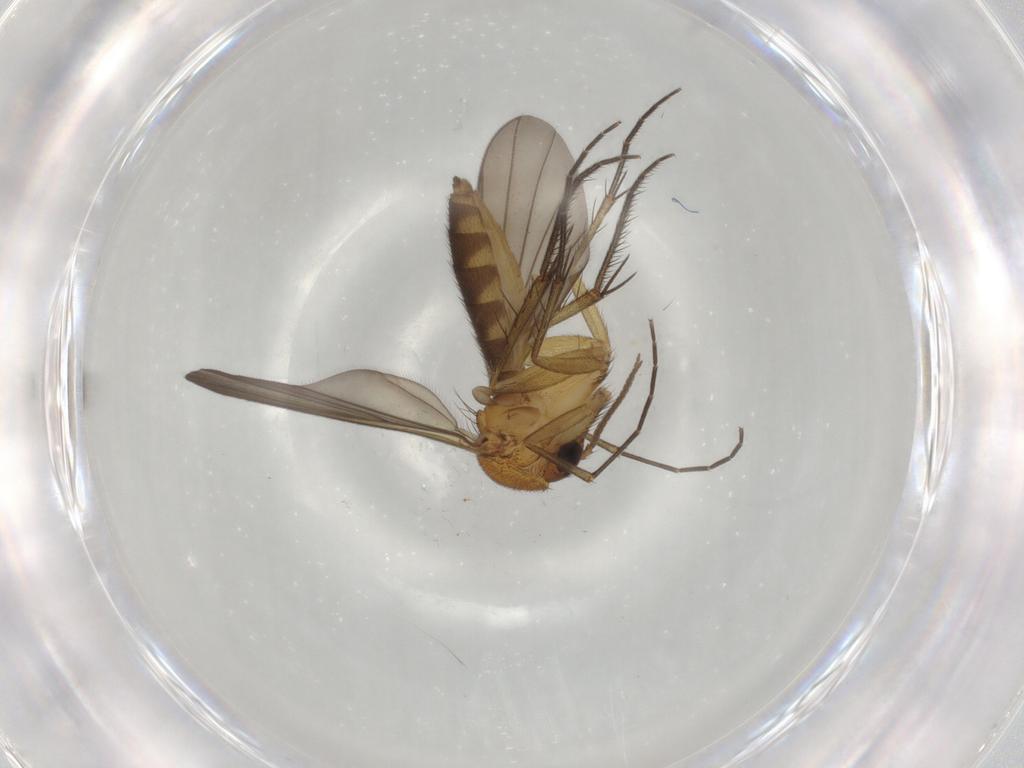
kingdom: Animalia
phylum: Arthropoda
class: Insecta
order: Diptera
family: Mycetophilidae
